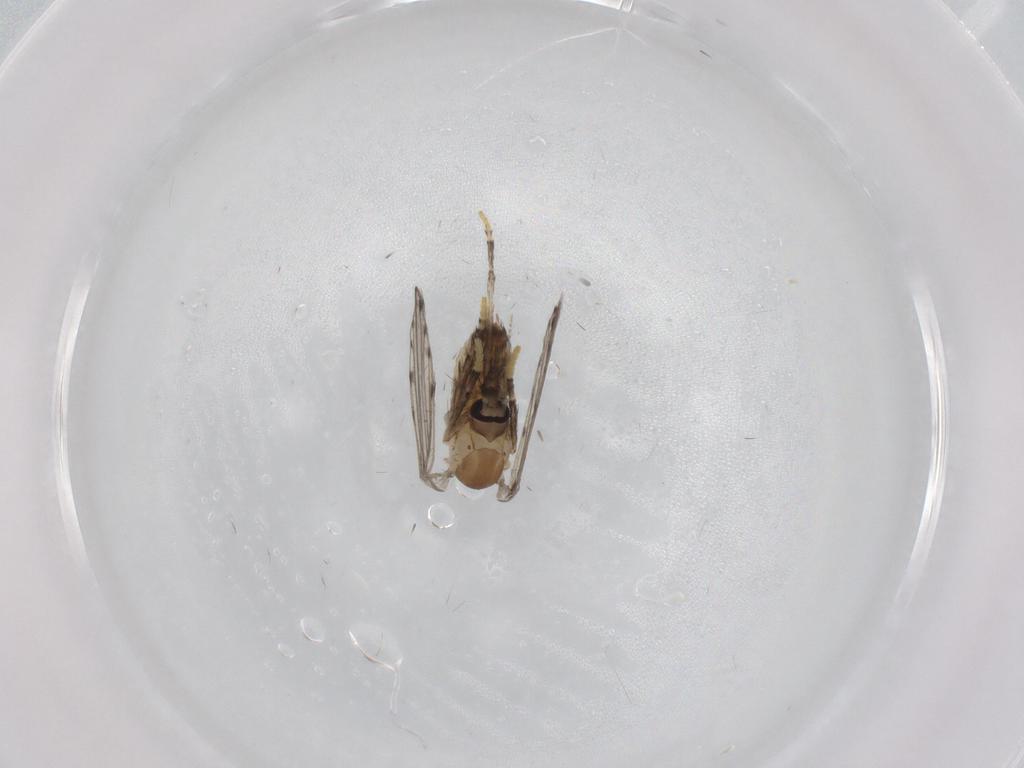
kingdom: Animalia
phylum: Arthropoda
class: Insecta
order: Diptera
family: Psychodidae
